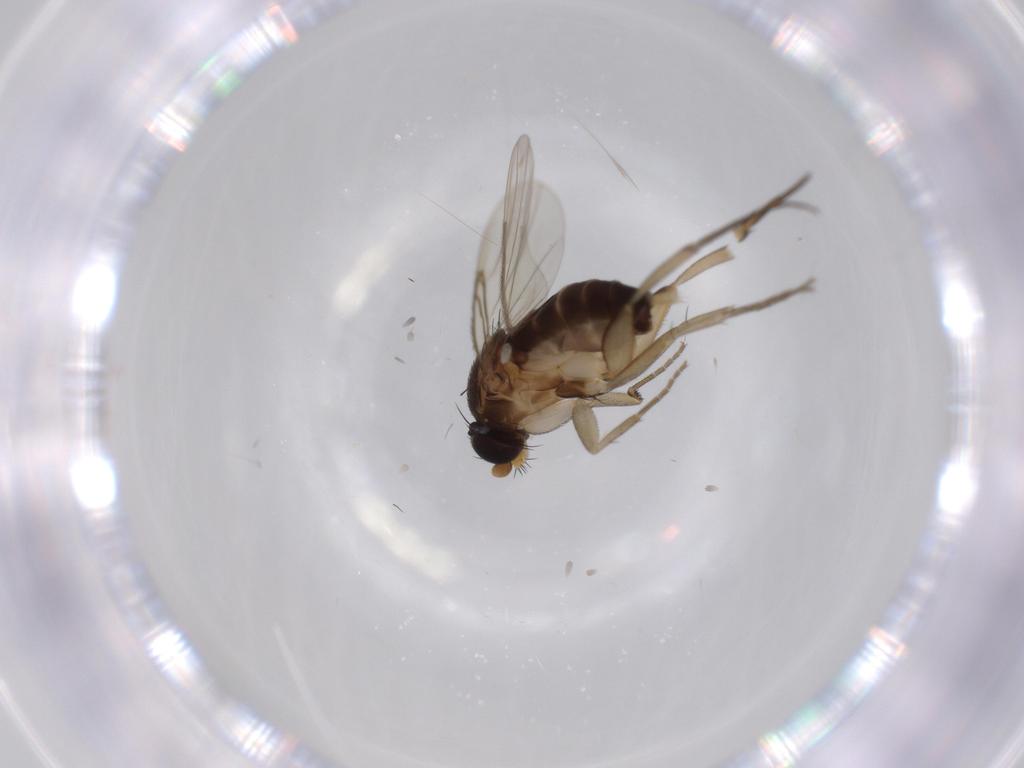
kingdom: Animalia
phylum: Arthropoda
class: Insecta
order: Diptera
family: Phoridae
